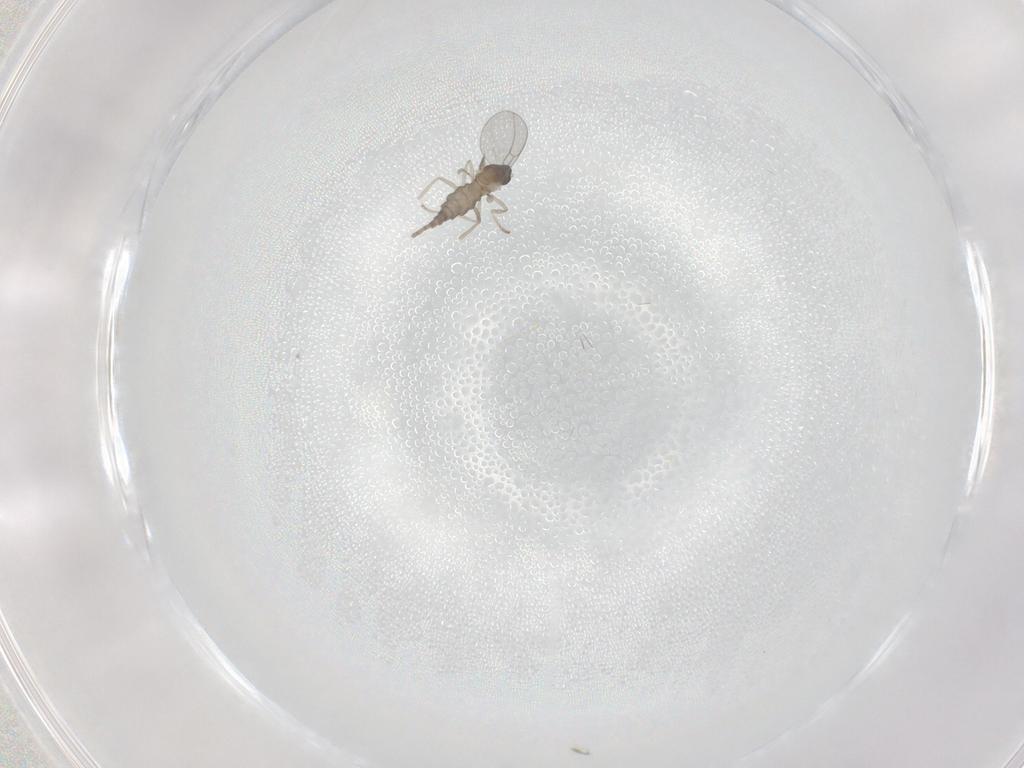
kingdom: Animalia
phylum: Arthropoda
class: Insecta
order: Diptera
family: Cecidomyiidae
